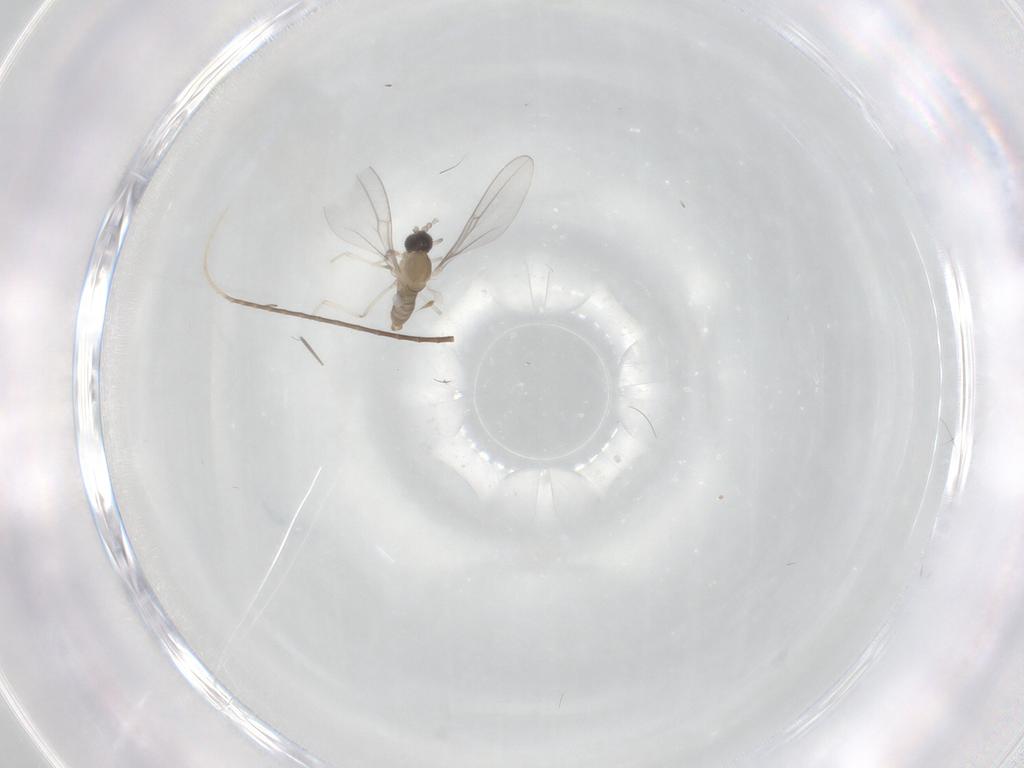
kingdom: Animalia
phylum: Arthropoda
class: Insecta
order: Diptera
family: Cecidomyiidae
